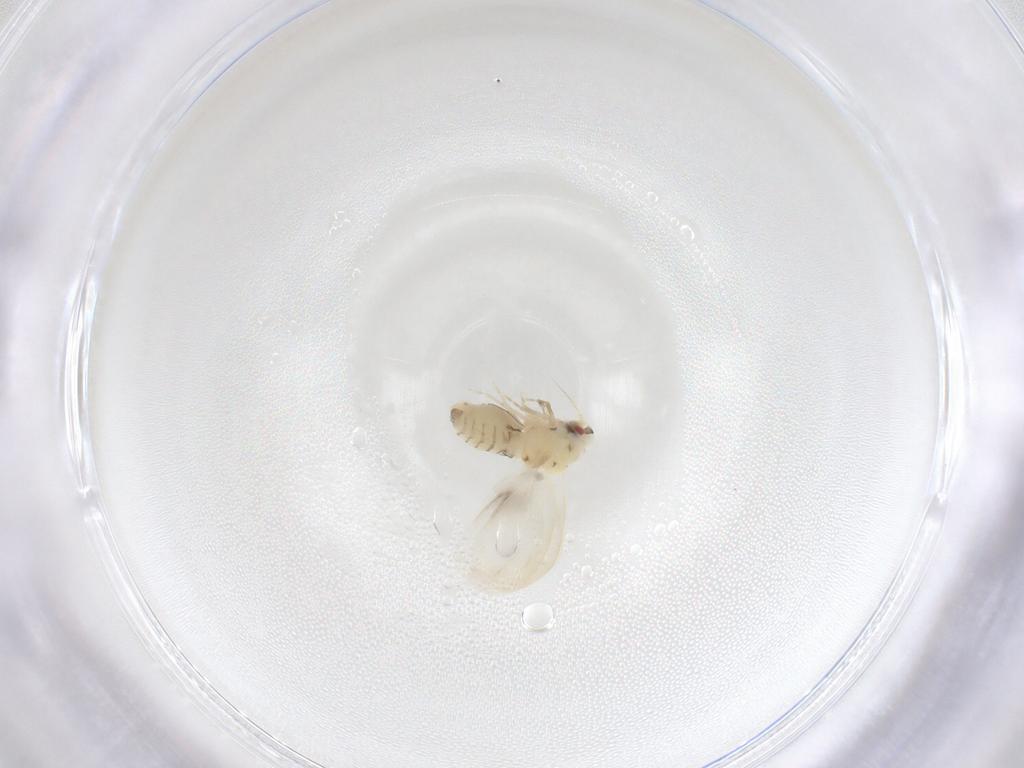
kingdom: Animalia
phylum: Arthropoda
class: Insecta
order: Hemiptera
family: Aleyrodidae
